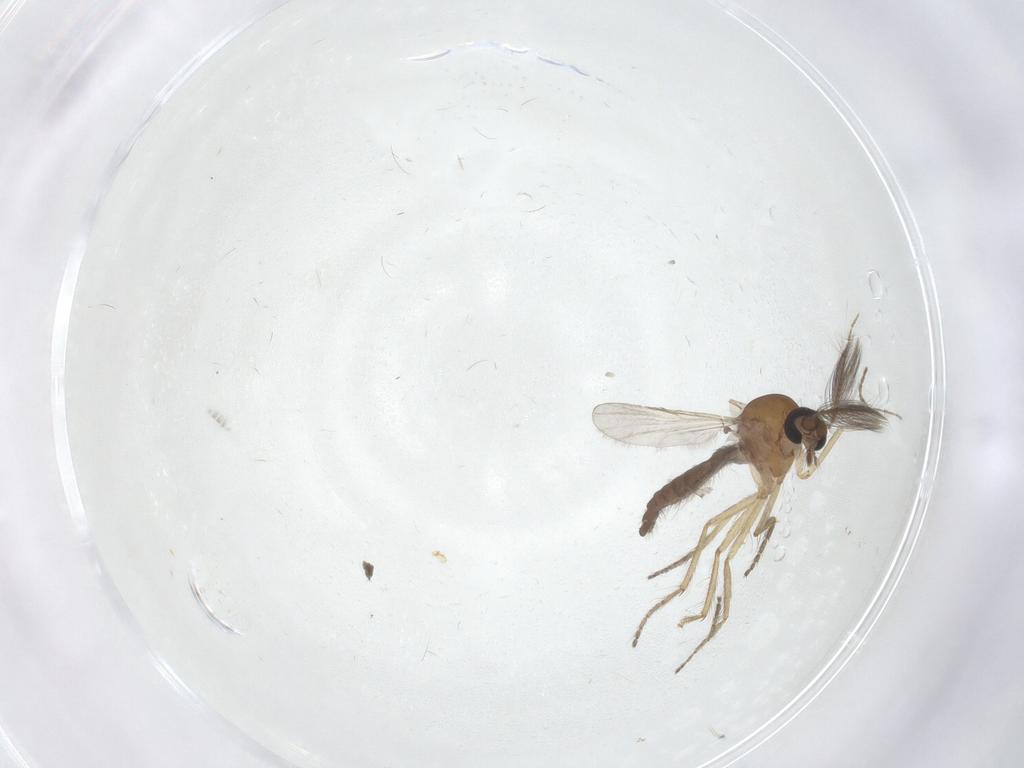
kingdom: Animalia
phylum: Arthropoda
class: Insecta
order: Diptera
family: Ceratopogonidae
